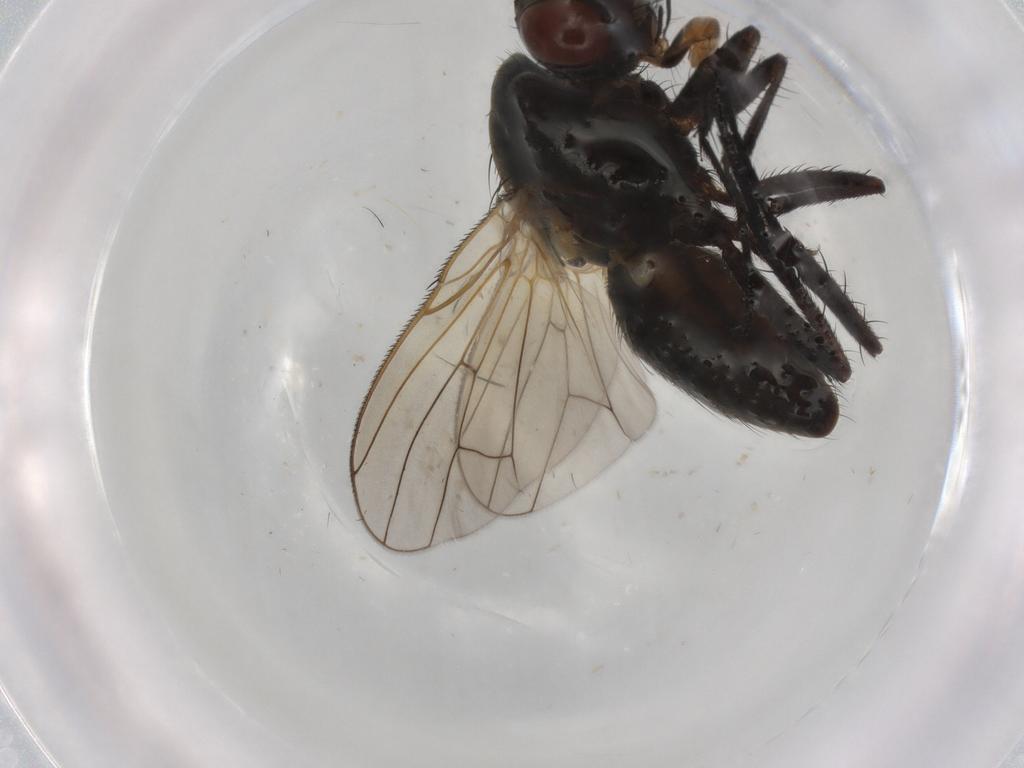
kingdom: Animalia
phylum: Arthropoda
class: Insecta
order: Diptera
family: Anthomyiidae
